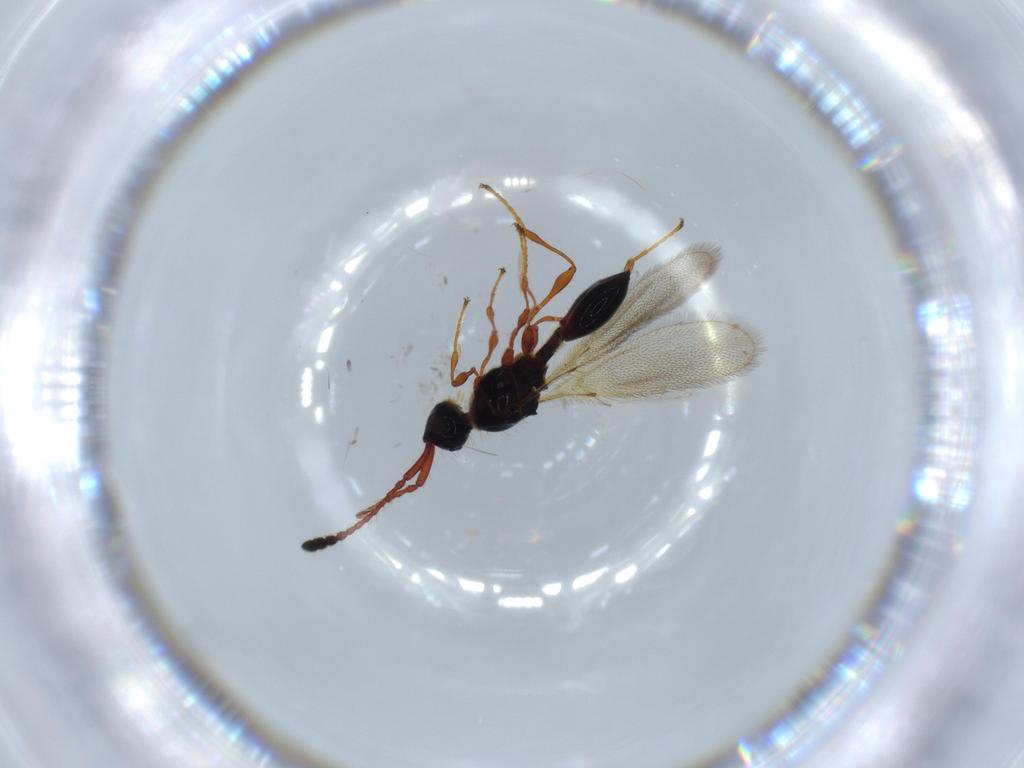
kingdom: Animalia
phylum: Arthropoda
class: Insecta
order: Hymenoptera
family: Diapriidae
